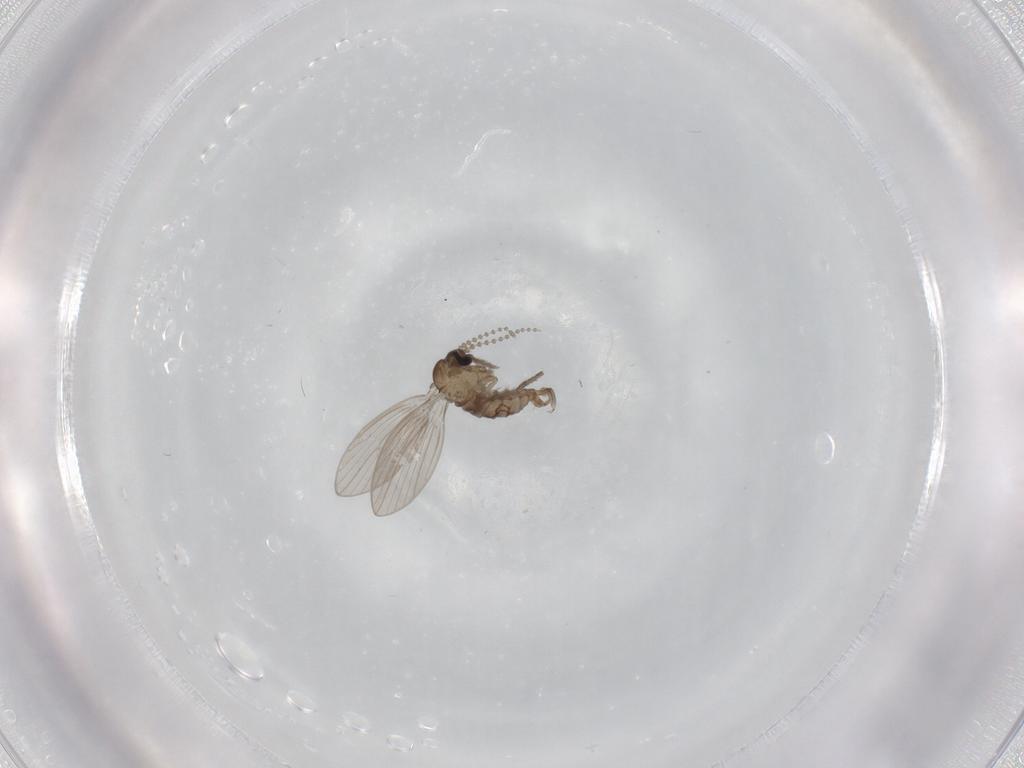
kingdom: Animalia
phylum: Arthropoda
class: Insecta
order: Diptera
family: Psychodidae
